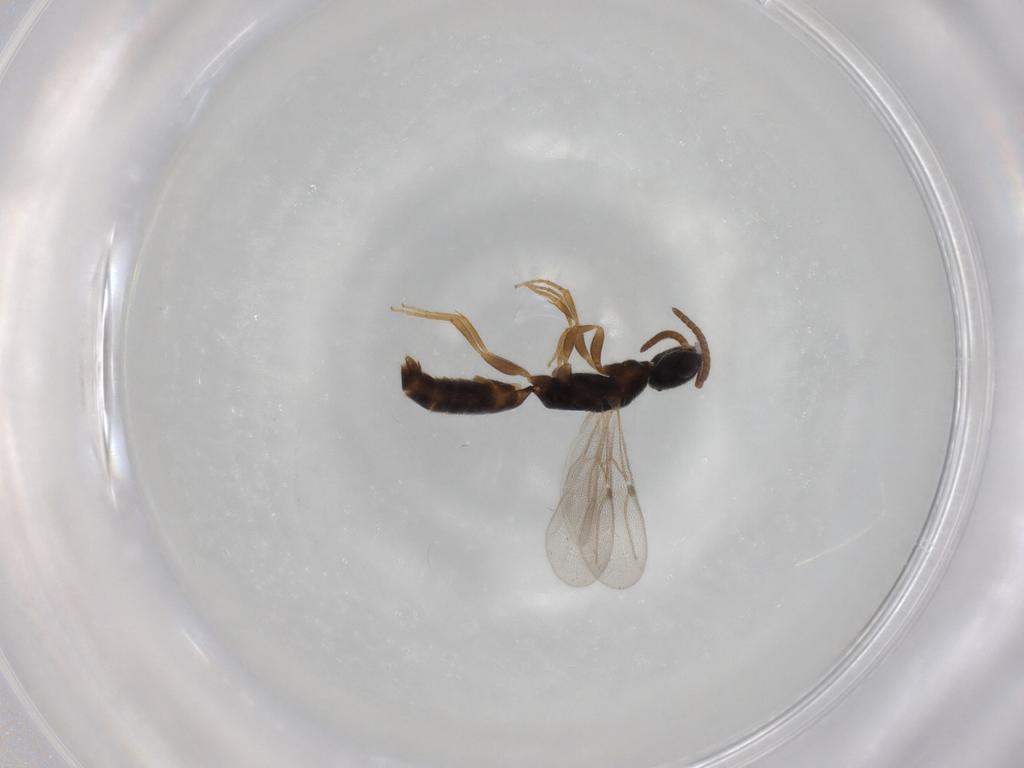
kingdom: Animalia
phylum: Arthropoda
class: Insecta
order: Hymenoptera
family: Bethylidae
